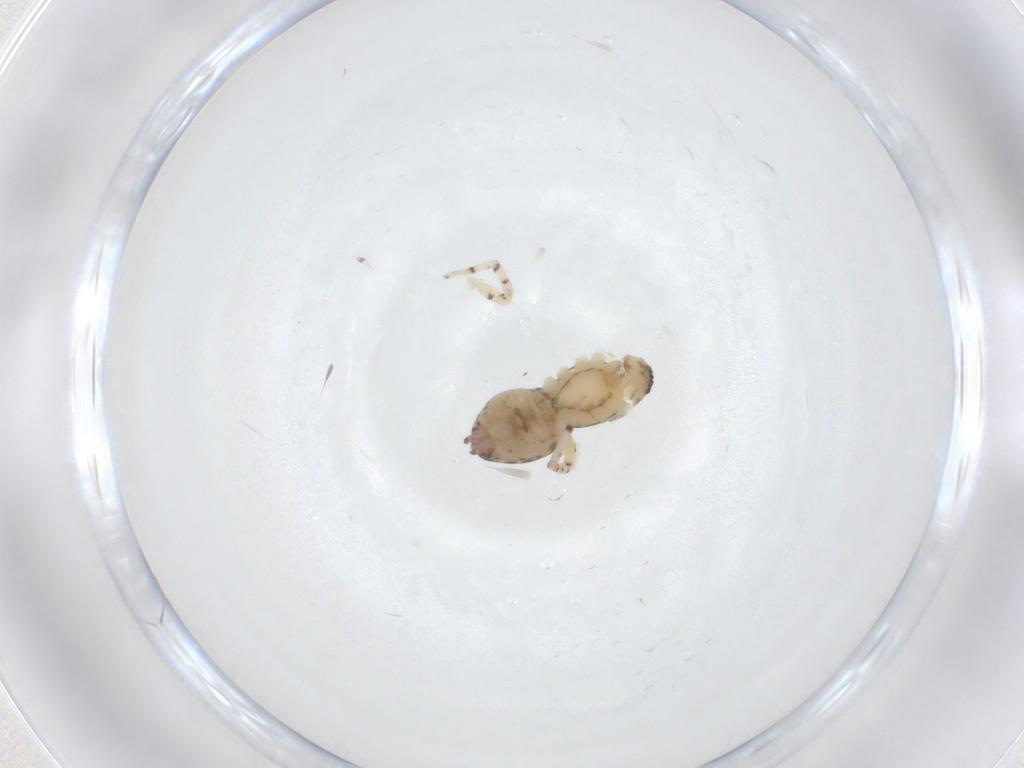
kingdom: Animalia
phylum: Arthropoda
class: Arachnida
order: Araneae
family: Anyphaenidae
